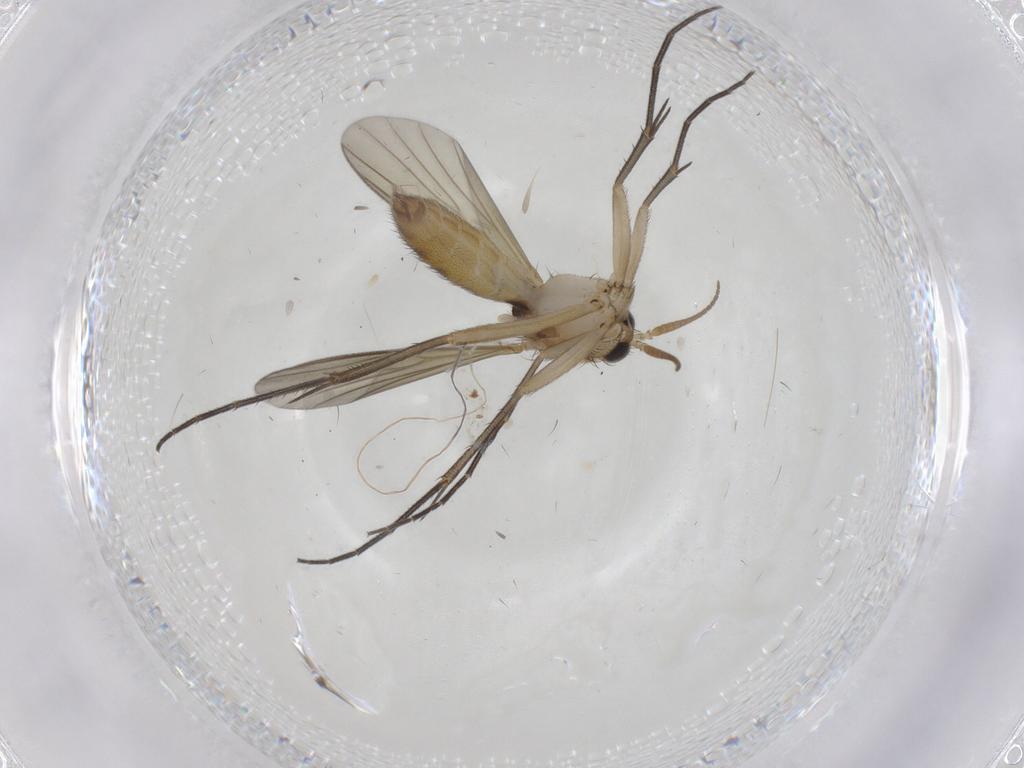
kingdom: Animalia
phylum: Arthropoda
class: Insecta
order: Diptera
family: Mycetophilidae
